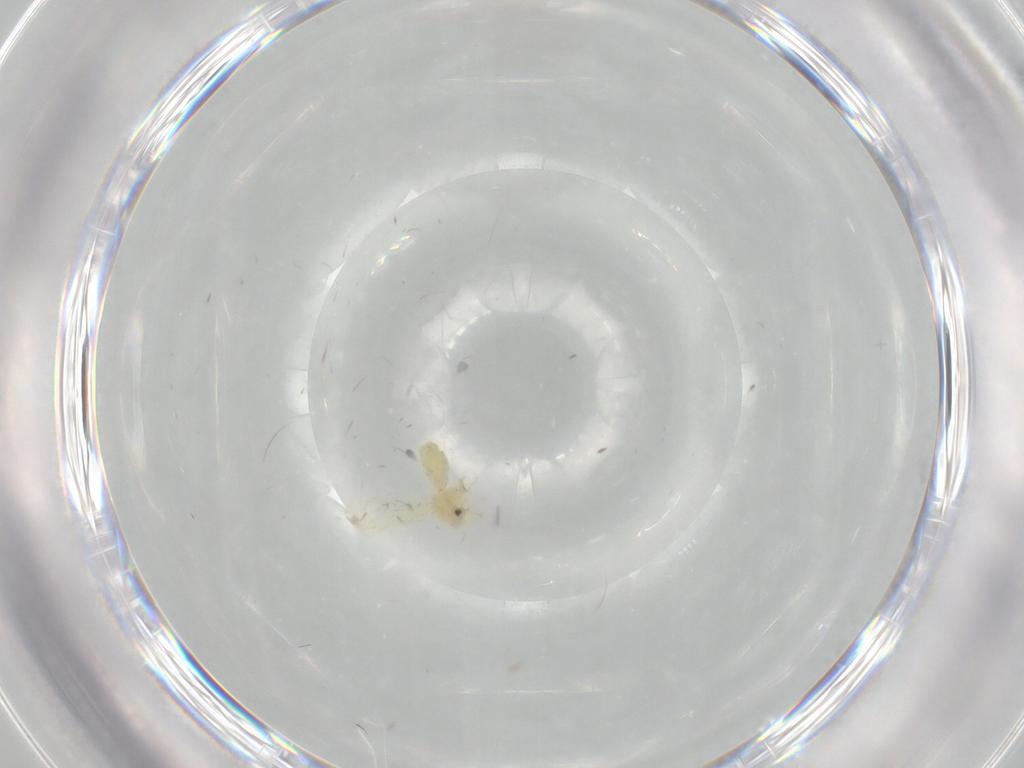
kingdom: Animalia
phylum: Arthropoda
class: Insecta
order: Hemiptera
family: Aleyrodidae
